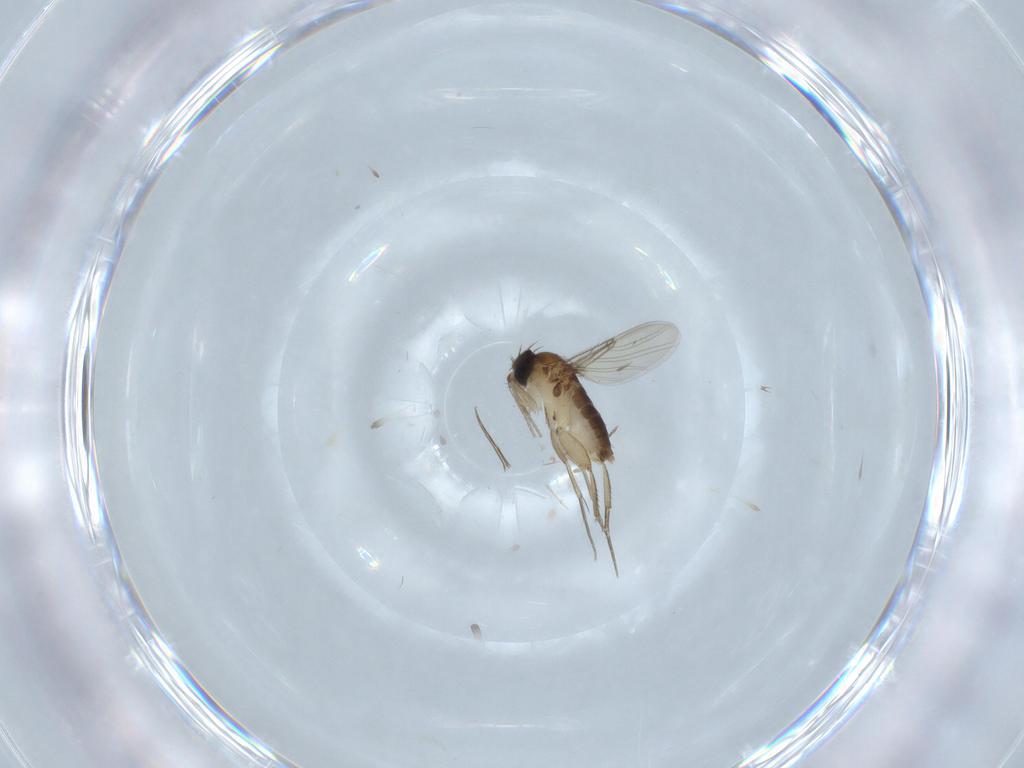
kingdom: Animalia
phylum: Arthropoda
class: Insecta
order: Diptera
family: Phoridae
